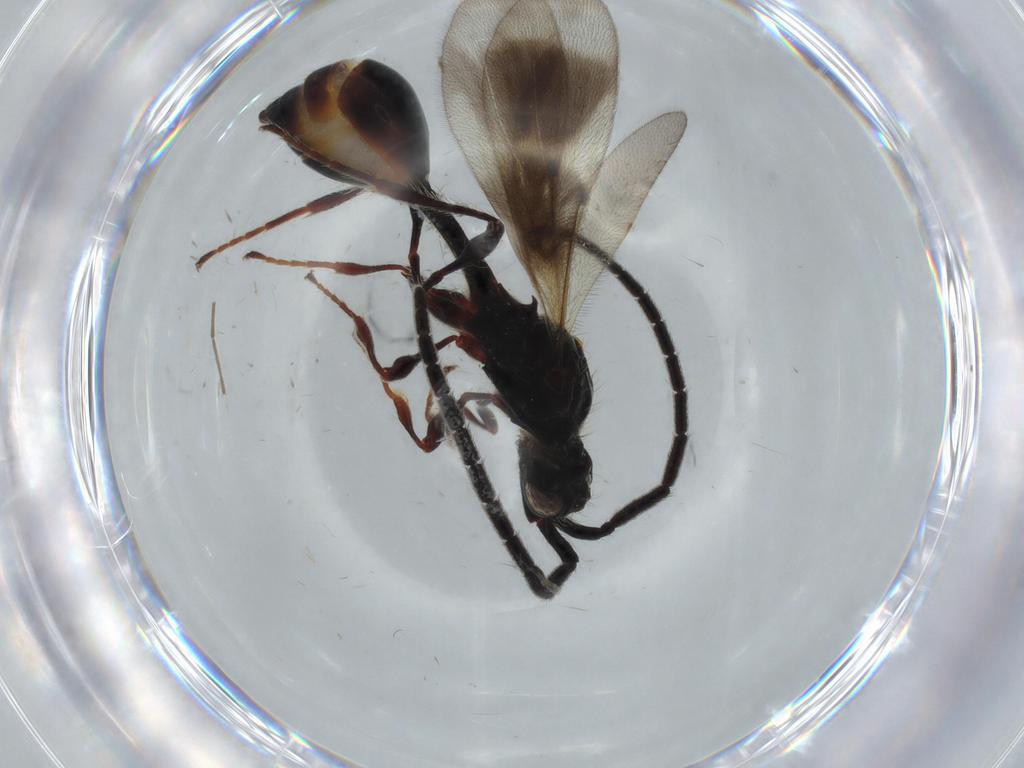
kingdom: Animalia
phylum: Arthropoda
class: Insecta
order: Hymenoptera
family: Diapriidae
